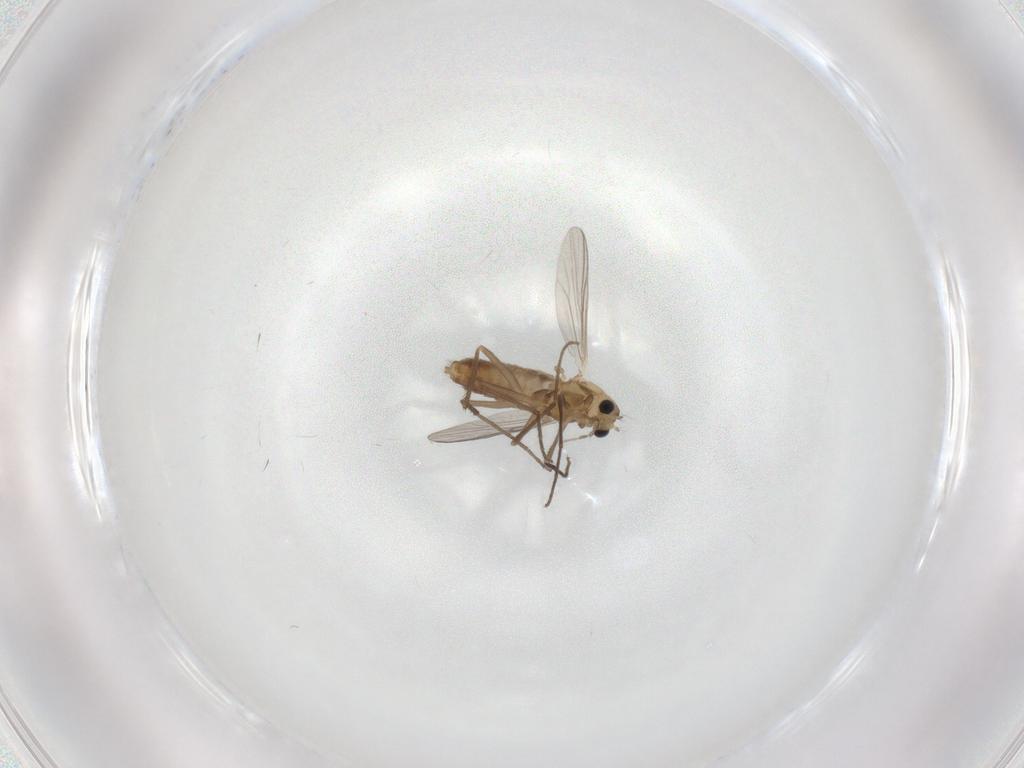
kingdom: Animalia
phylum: Arthropoda
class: Insecta
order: Diptera
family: Chironomidae
